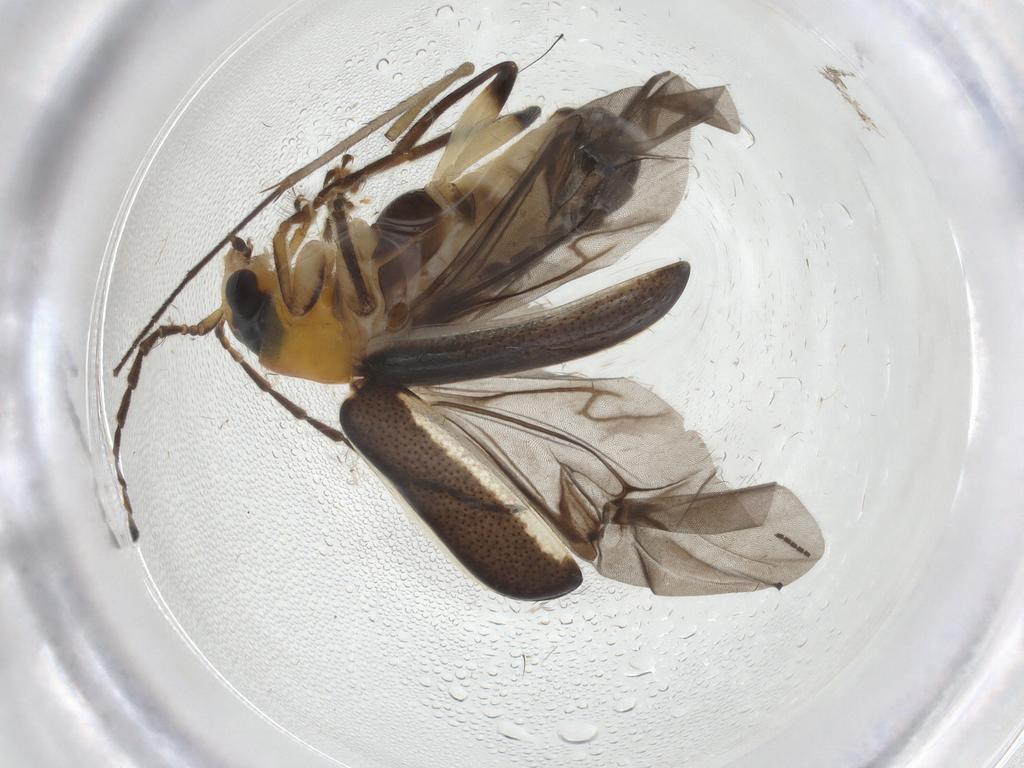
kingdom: Animalia
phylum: Arthropoda
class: Insecta
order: Coleoptera
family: Chrysomelidae
